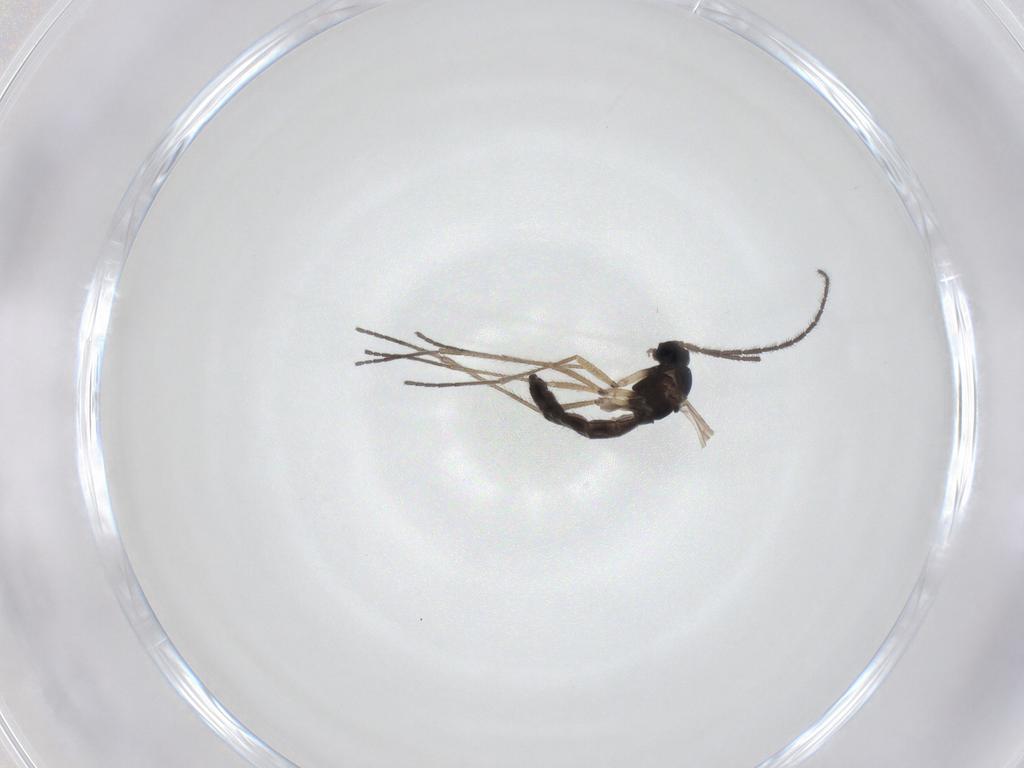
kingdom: Animalia
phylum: Arthropoda
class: Insecta
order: Diptera
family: Sciaridae
